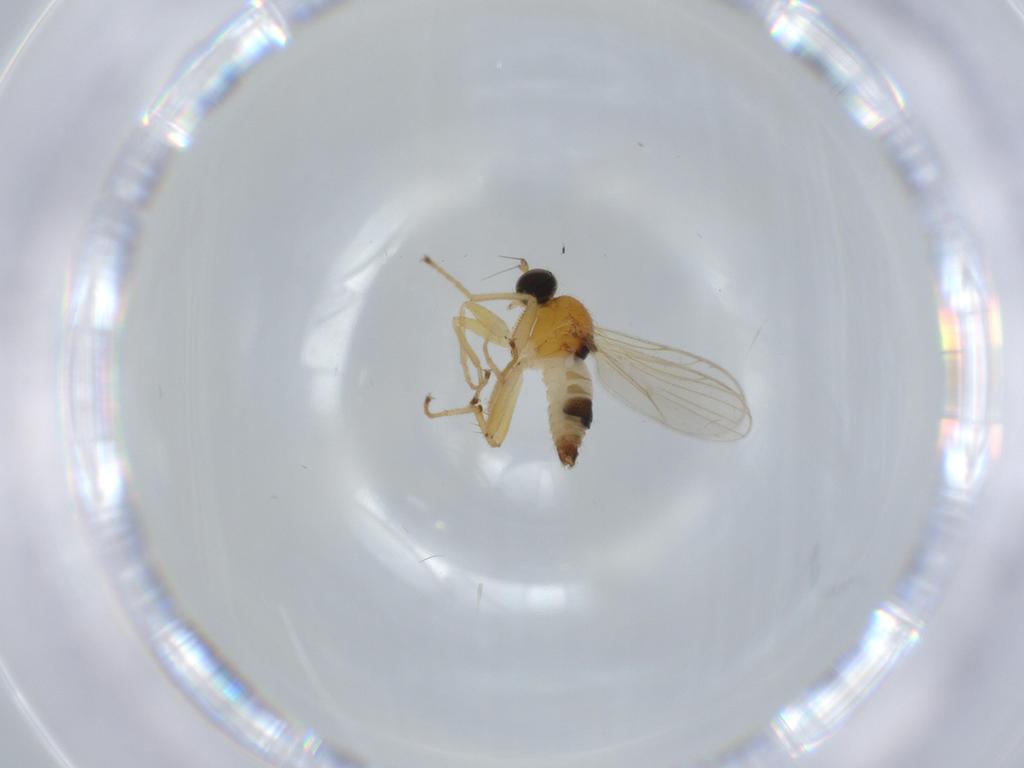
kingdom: Animalia
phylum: Arthropoda
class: Insecta
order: Diptera
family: Hybotidae
